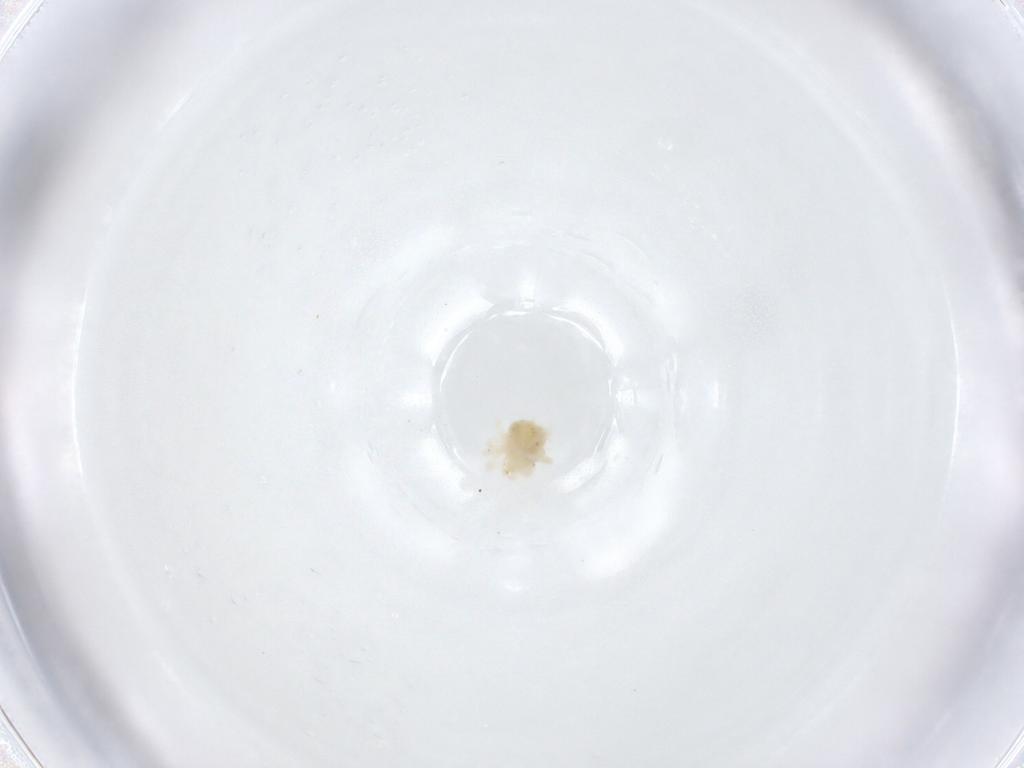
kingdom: Animalia
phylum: Arthropoda
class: Arachnida
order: Trombidiformes
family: Anystidae
